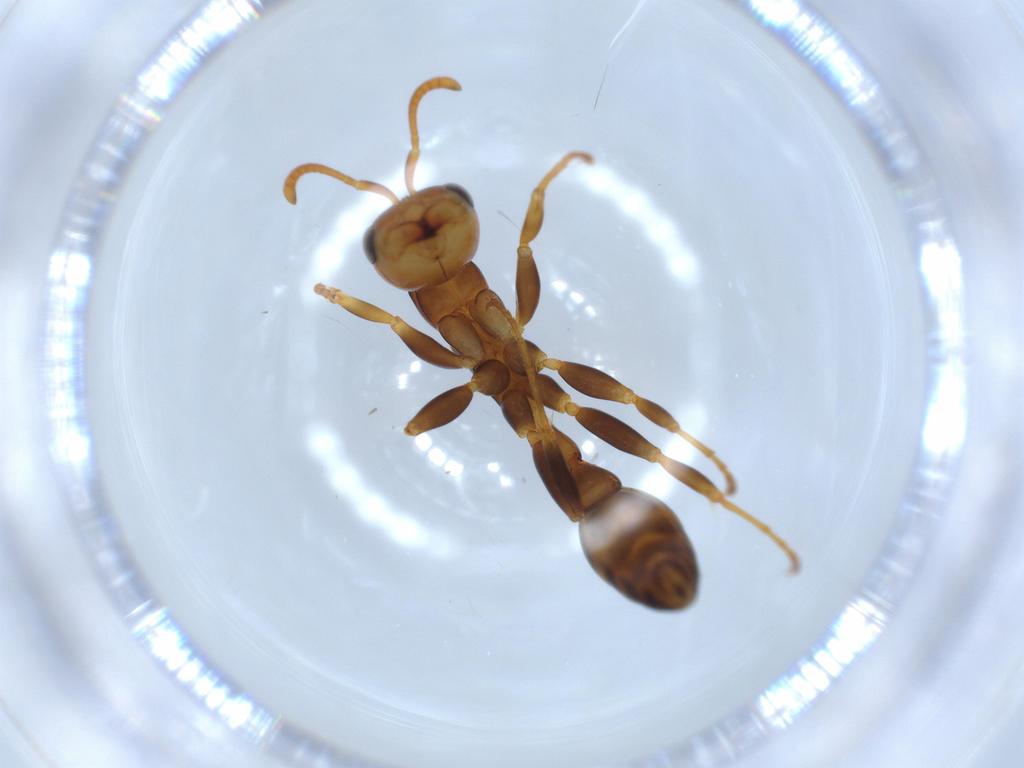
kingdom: Animalia
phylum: Arthropoda
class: Insecta
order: Hymenoptera
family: Formicidae
